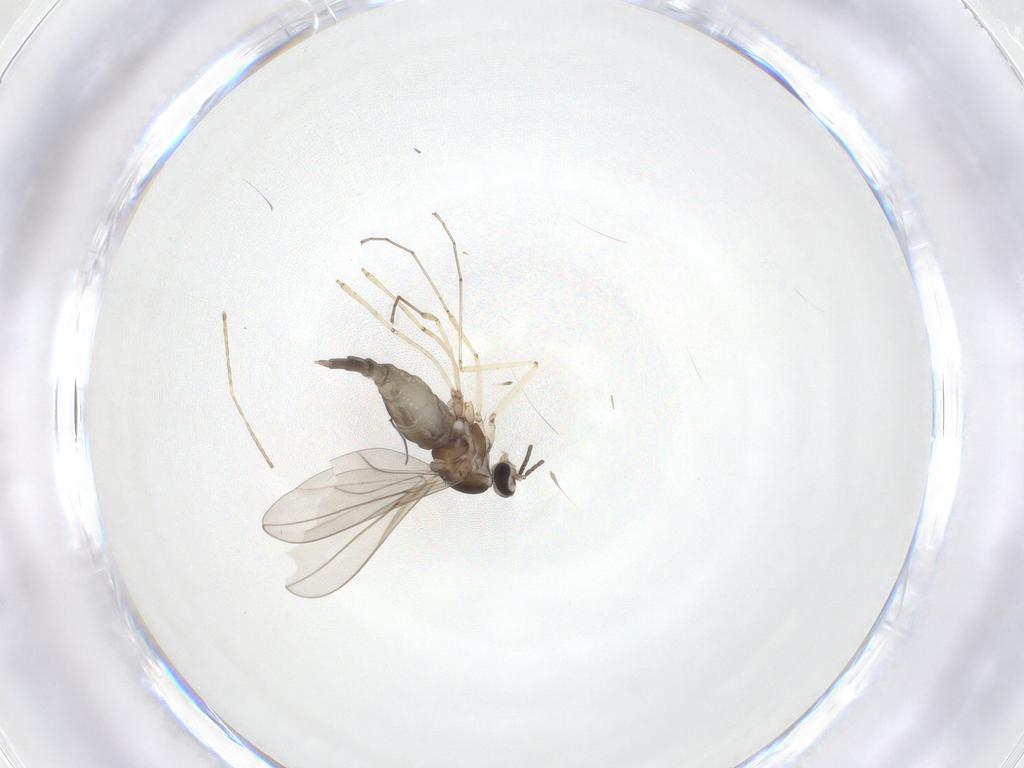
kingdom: Animalia
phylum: Arthropoda
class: Insecta
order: Diptera
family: Cecidomyiidae
